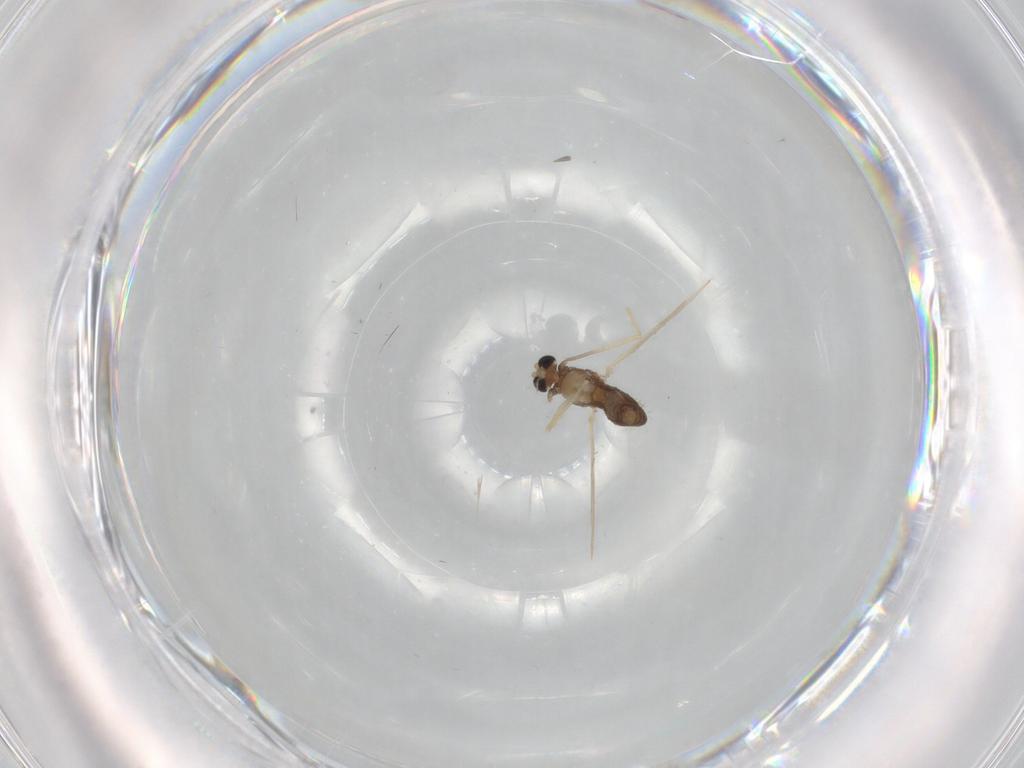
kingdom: Animalia
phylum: Arthropoda
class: Insecta
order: Diptera
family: Chironomidae
